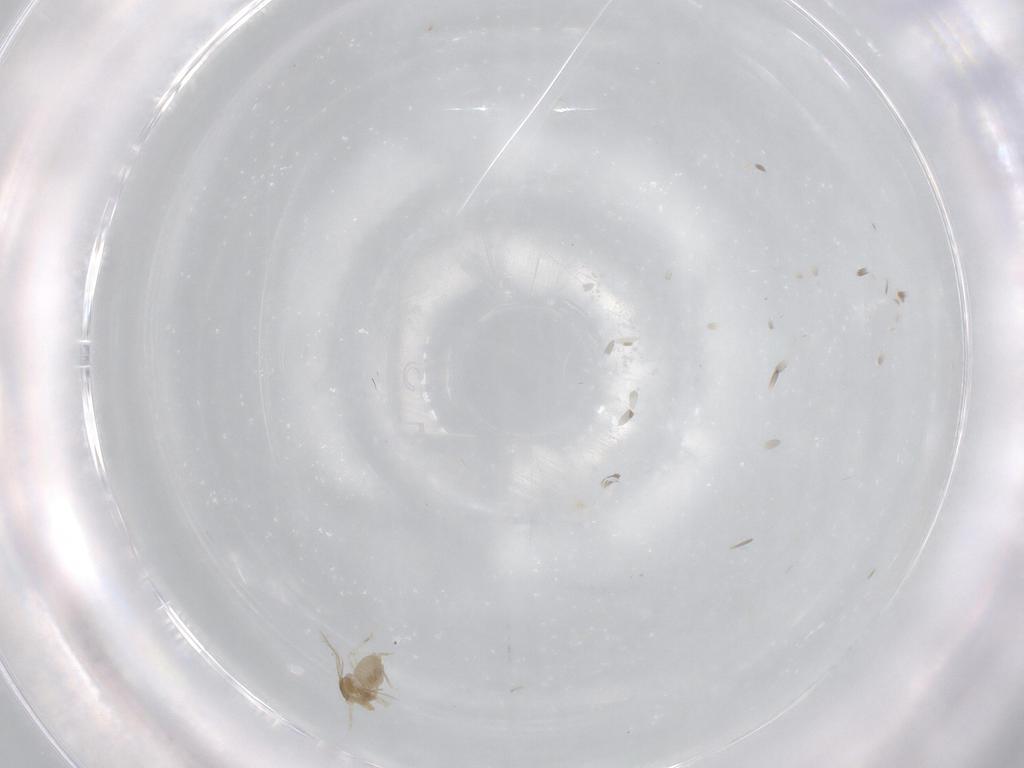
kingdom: Animalia
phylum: Arthropoda
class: Insecta
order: Diptera
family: Cecidomyiidae
